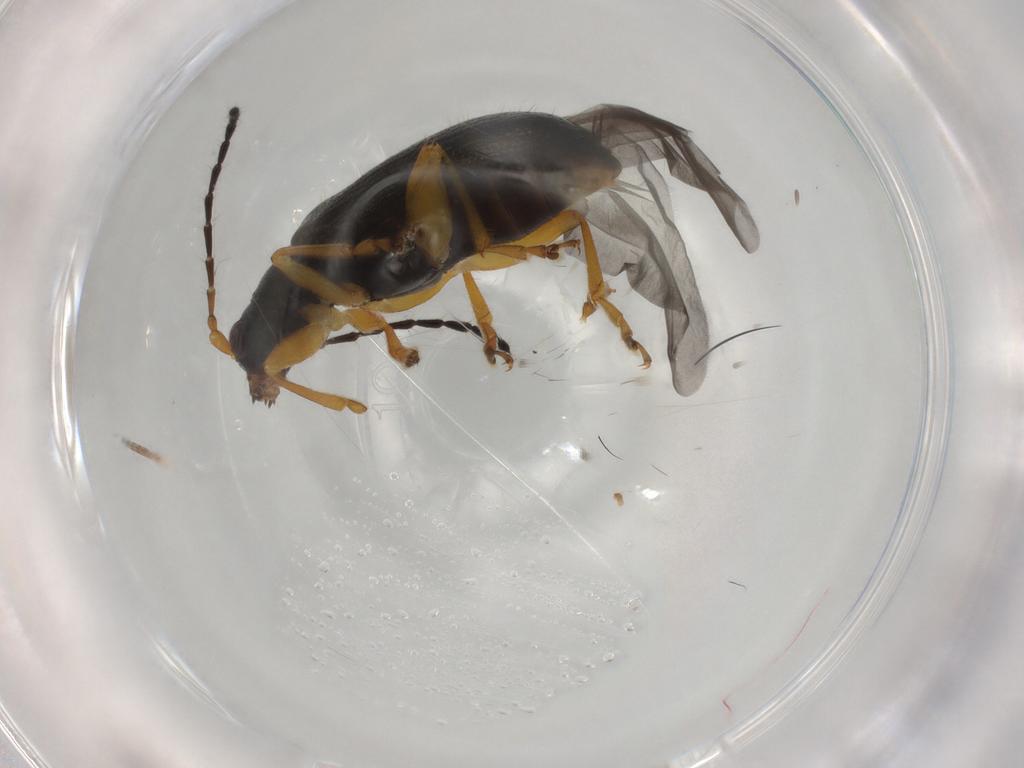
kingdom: Animalia
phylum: Arthropoda
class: Insecta
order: Coleoptera
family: Chrysomelidae
